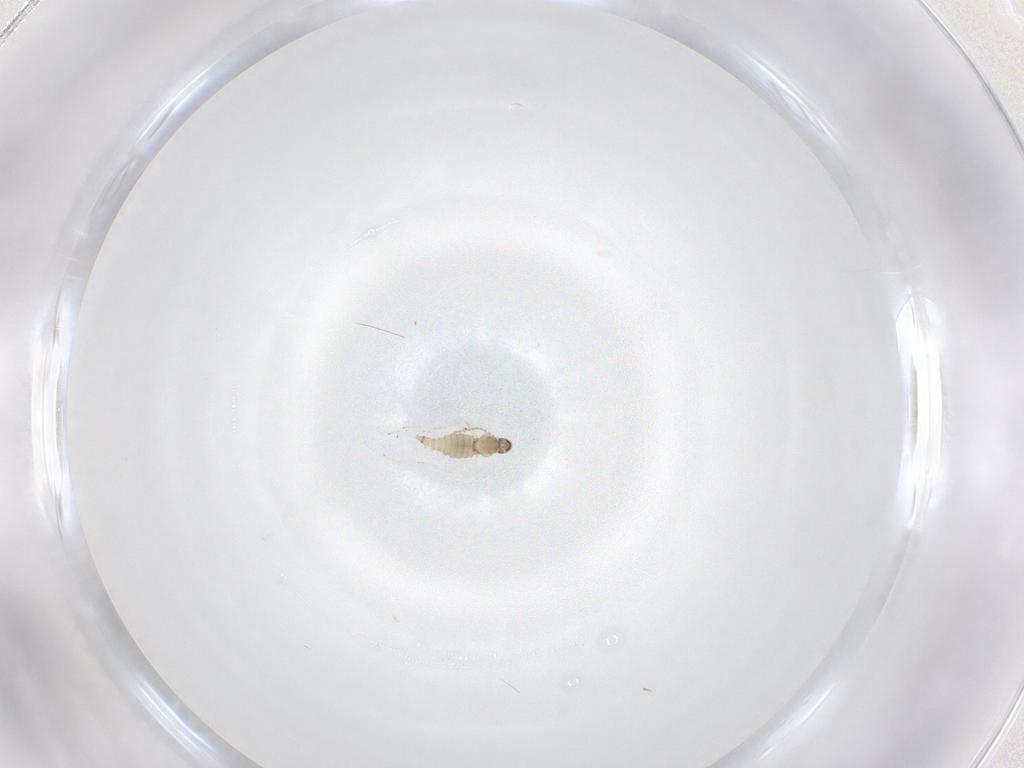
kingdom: Animalia
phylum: Arthropoda
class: Insecta
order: Diptera
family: Cecidomyiidae
